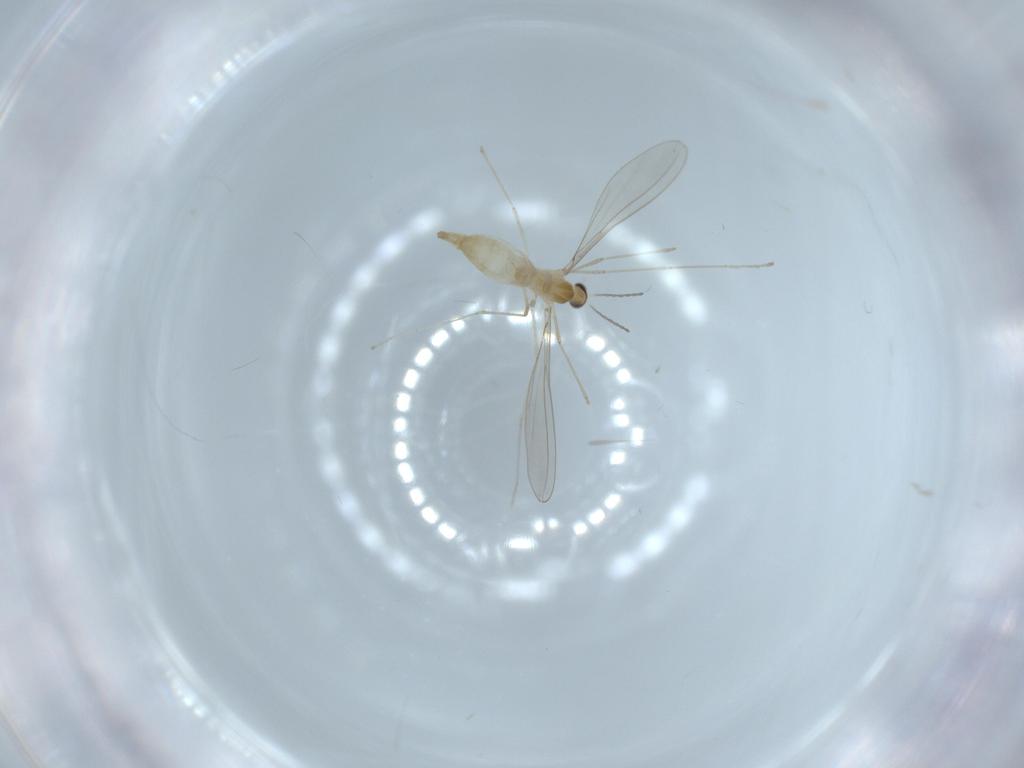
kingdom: Animalia
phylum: Arthropoda
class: Insecta
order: Diptera
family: Cecidomyiidae
